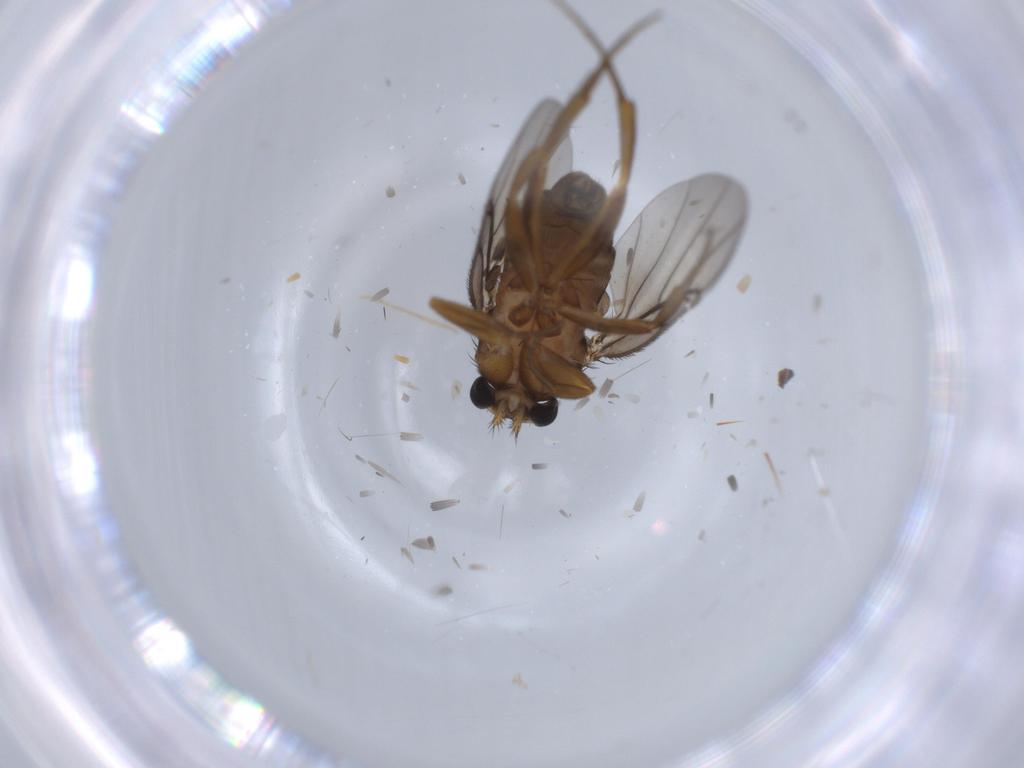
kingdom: Animalia
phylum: Arthropoda
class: Insecta
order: Diptera
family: Phoridae
